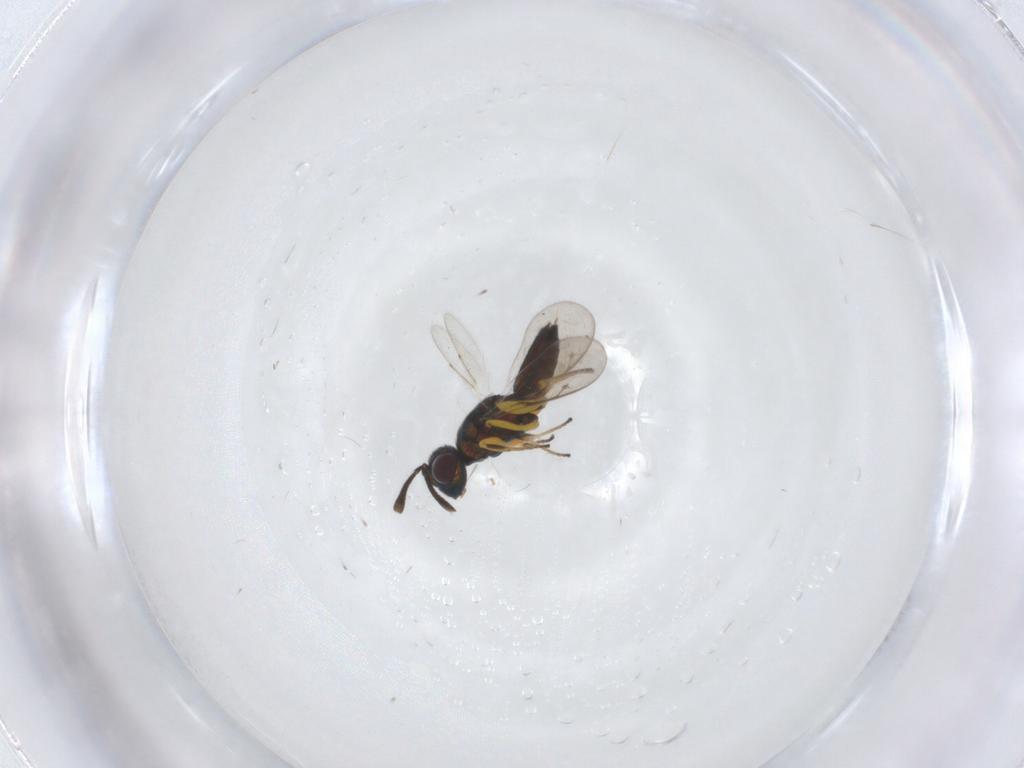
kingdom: Animalia
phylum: Arthropoda
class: Insecta
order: Hymenoptera
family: Eupelmidae
